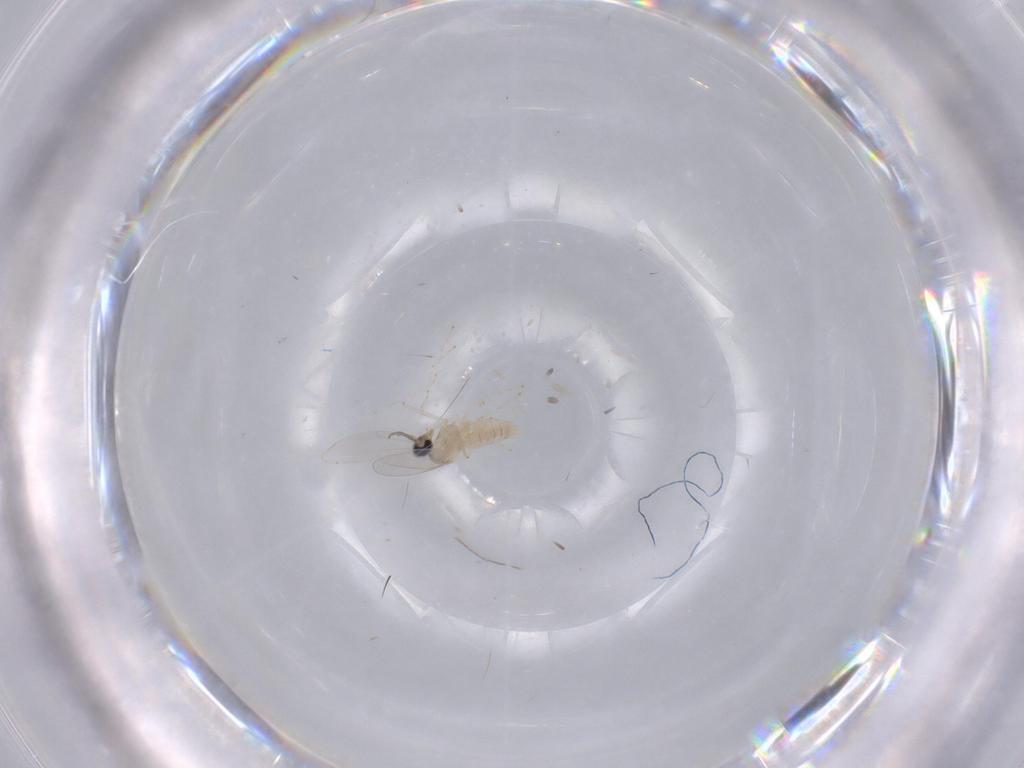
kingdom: Animalia
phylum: Arthropoda
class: Insecta
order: Diptera
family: Cecidomyiidae
